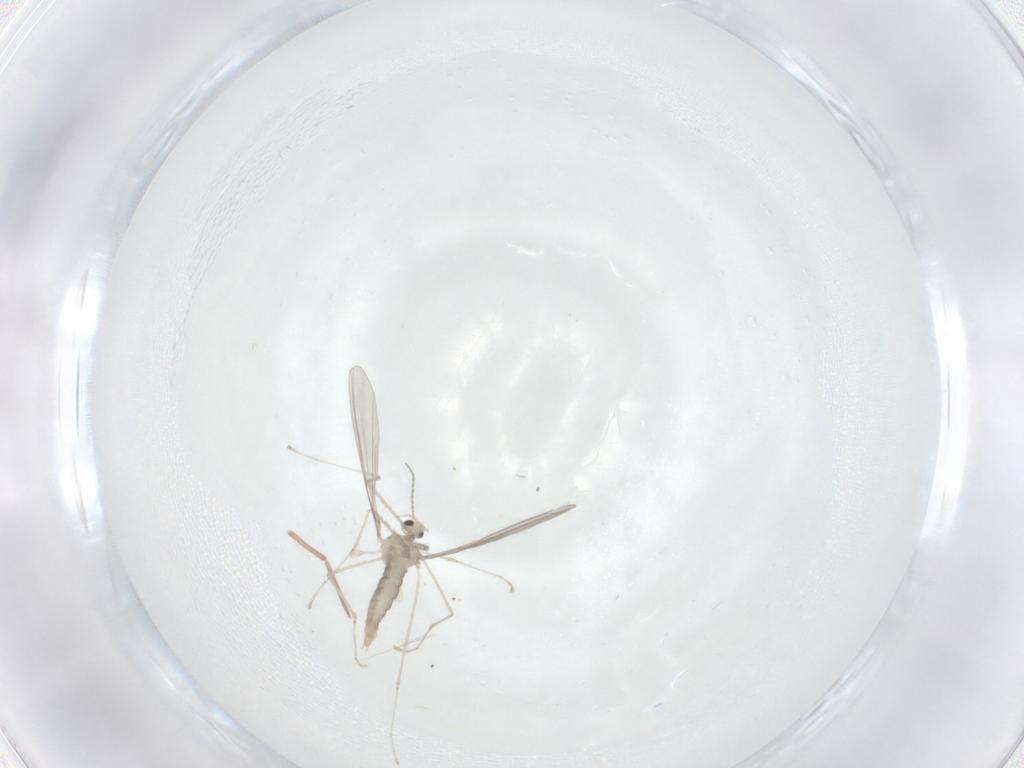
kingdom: Animalia
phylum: Arthropoda
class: Insecta
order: Diptera
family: Cecidomyiidae
